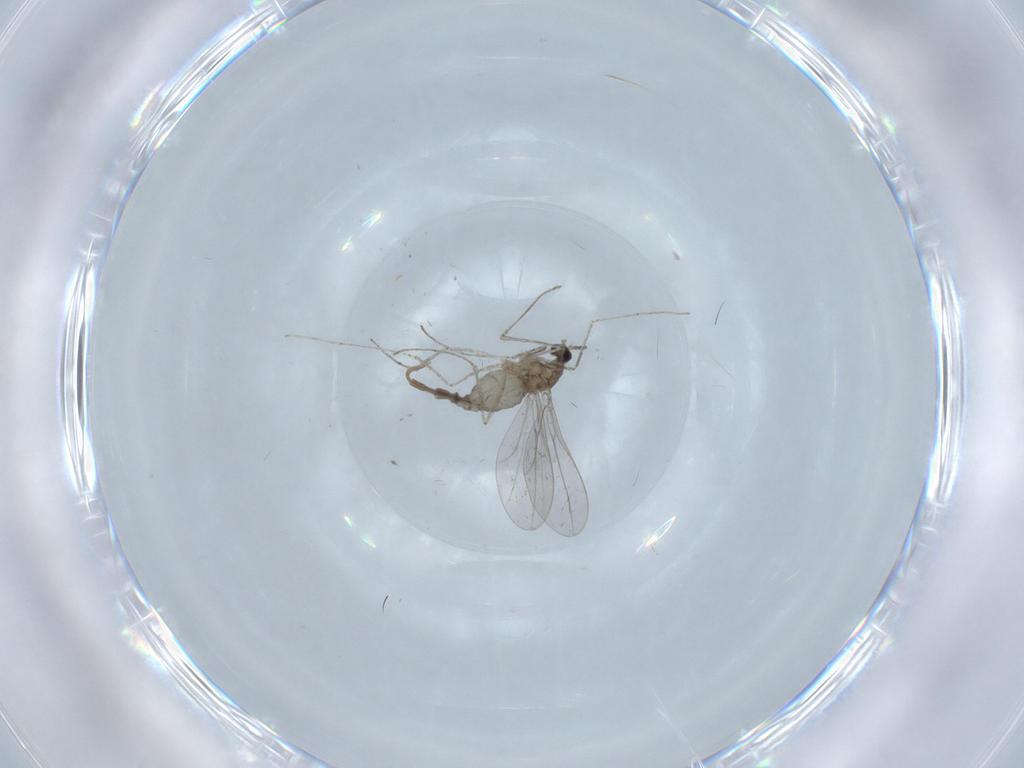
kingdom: Animalia
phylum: Arthropoda
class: Insecta
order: Diptera
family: Cecidomyiidae
